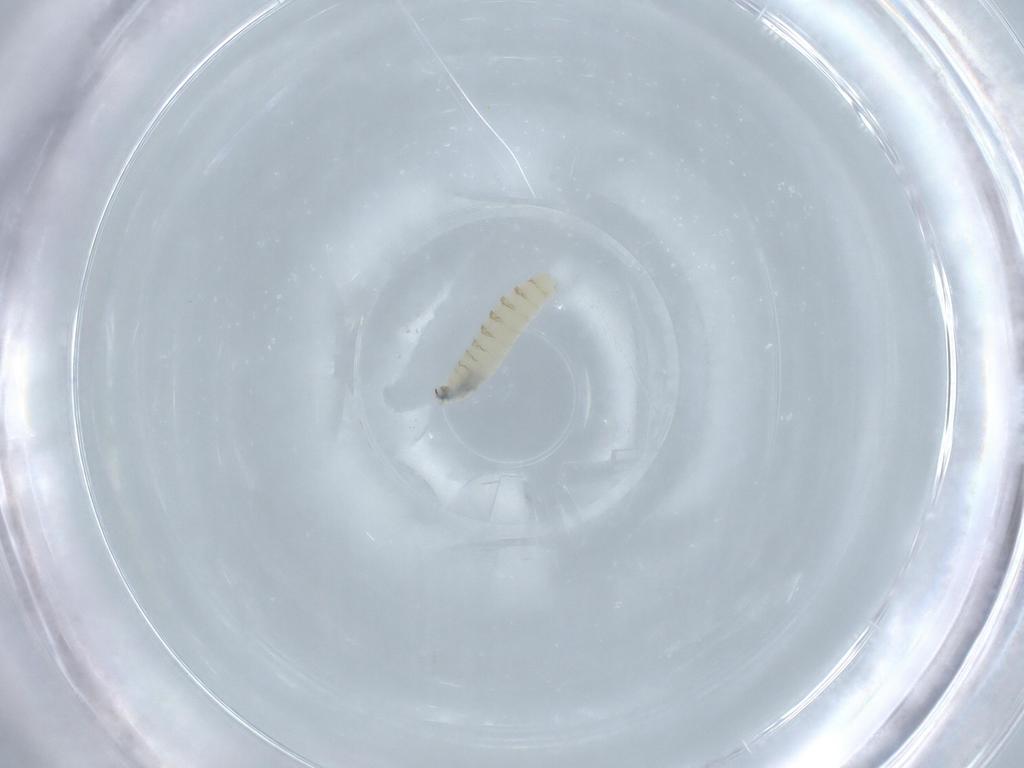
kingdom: Animalia
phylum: Arthropoda
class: Insecta
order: Diptera
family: Sarcophagidae
